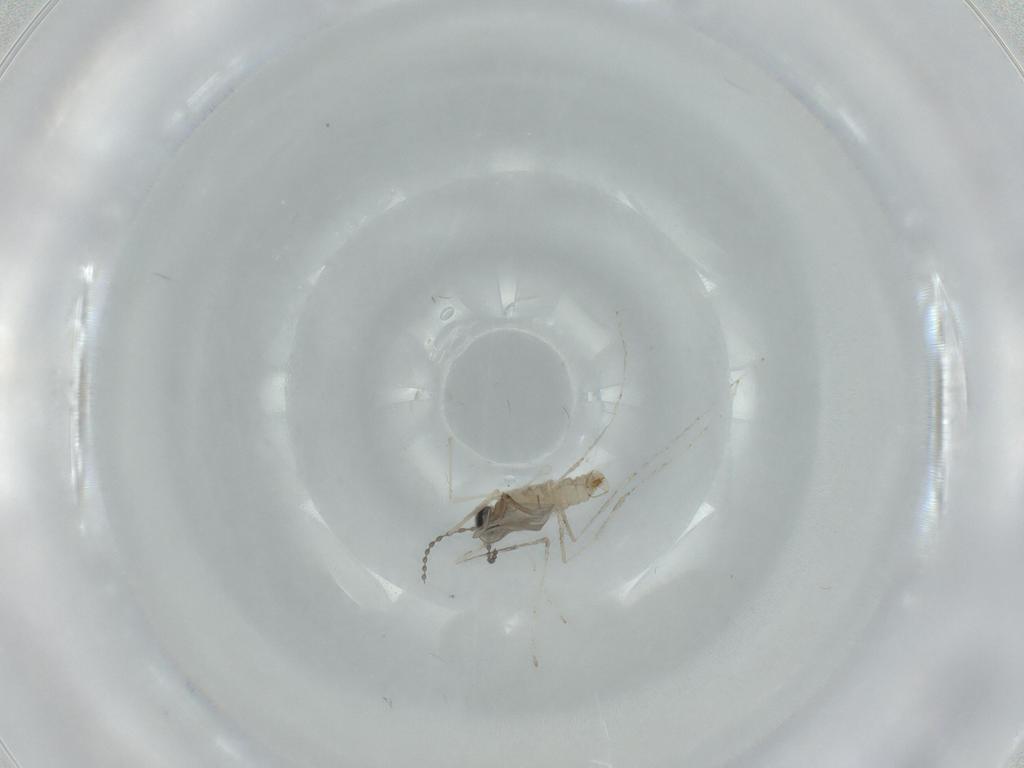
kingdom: Animalia
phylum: Arthropoda
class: Insecta
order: Diptera
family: Cecidomyiidae
